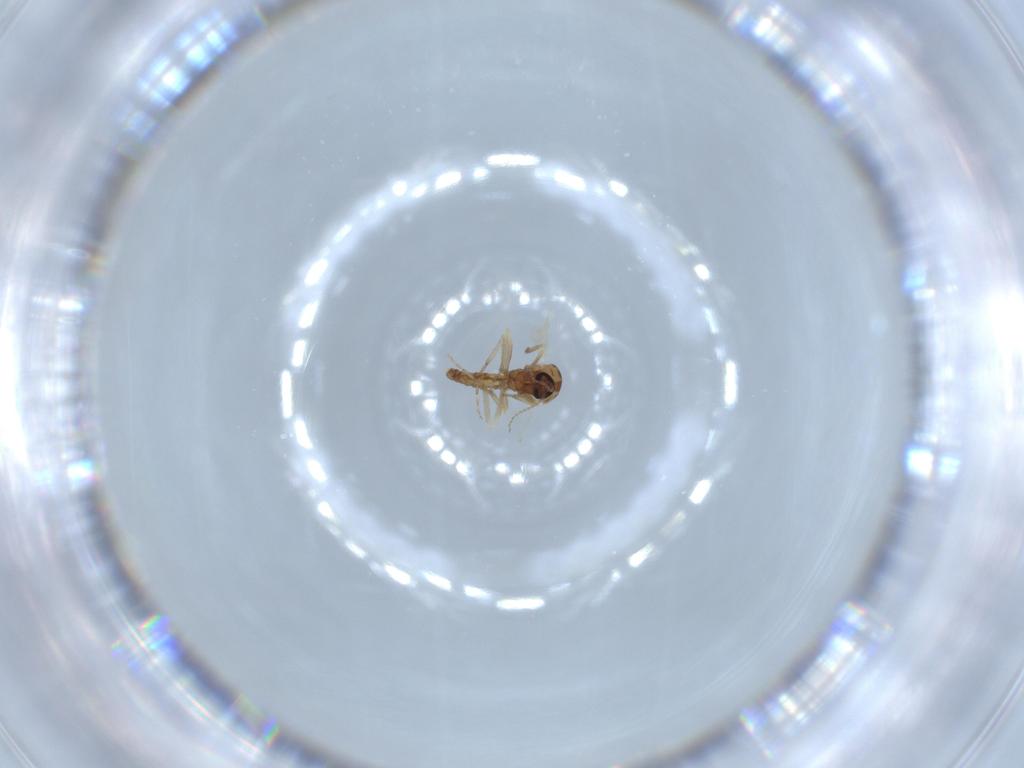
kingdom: Animalia
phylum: Arthropoda
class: Insecta
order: Diptera
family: Ceratopogonidae
